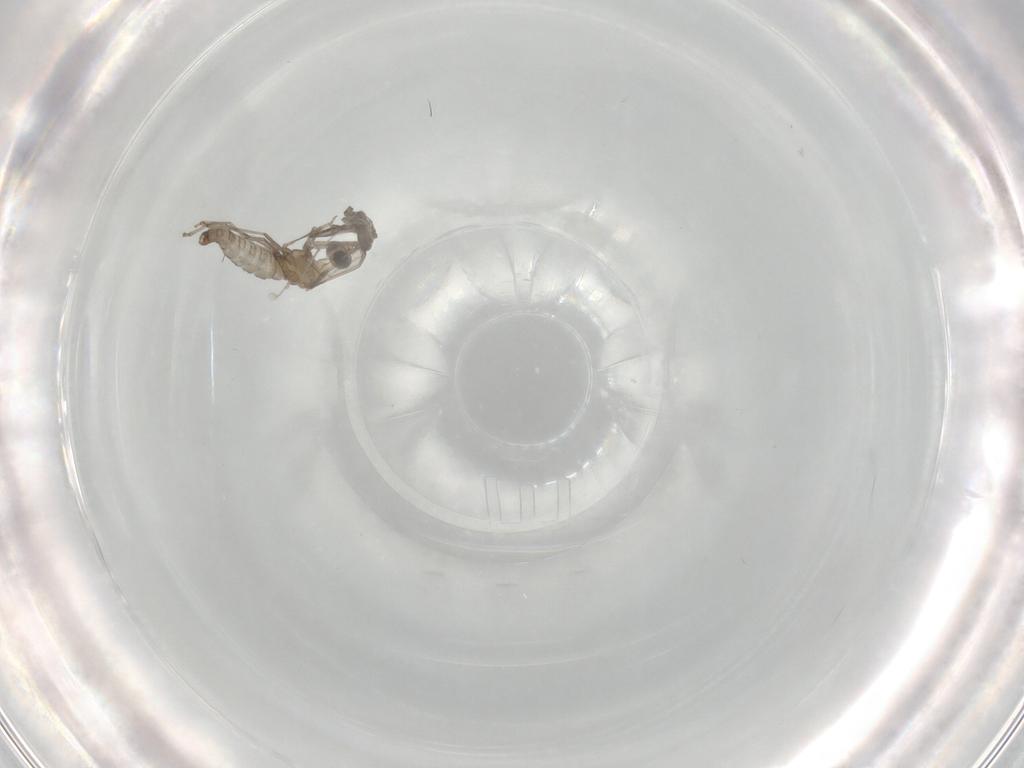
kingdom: Animalia
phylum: Arthropoda
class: Insecta
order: Diptera
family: Cecidomyiidae
